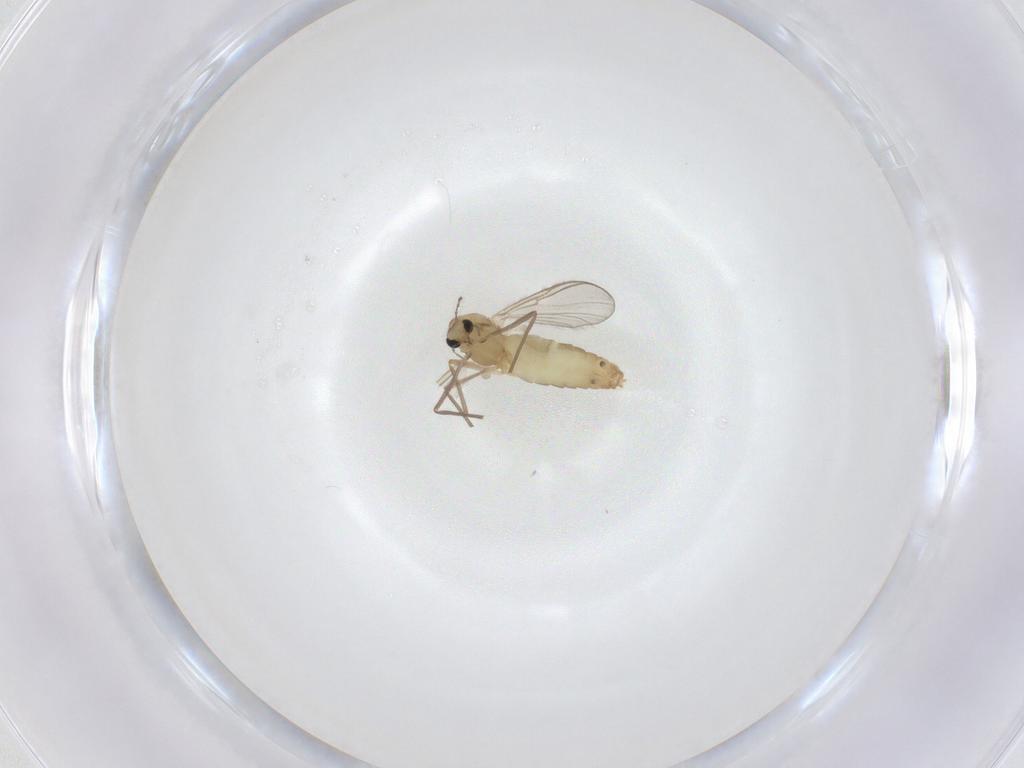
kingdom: Animalia
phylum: Arthropoda
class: Insecta
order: Diptera
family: Chironomidae
